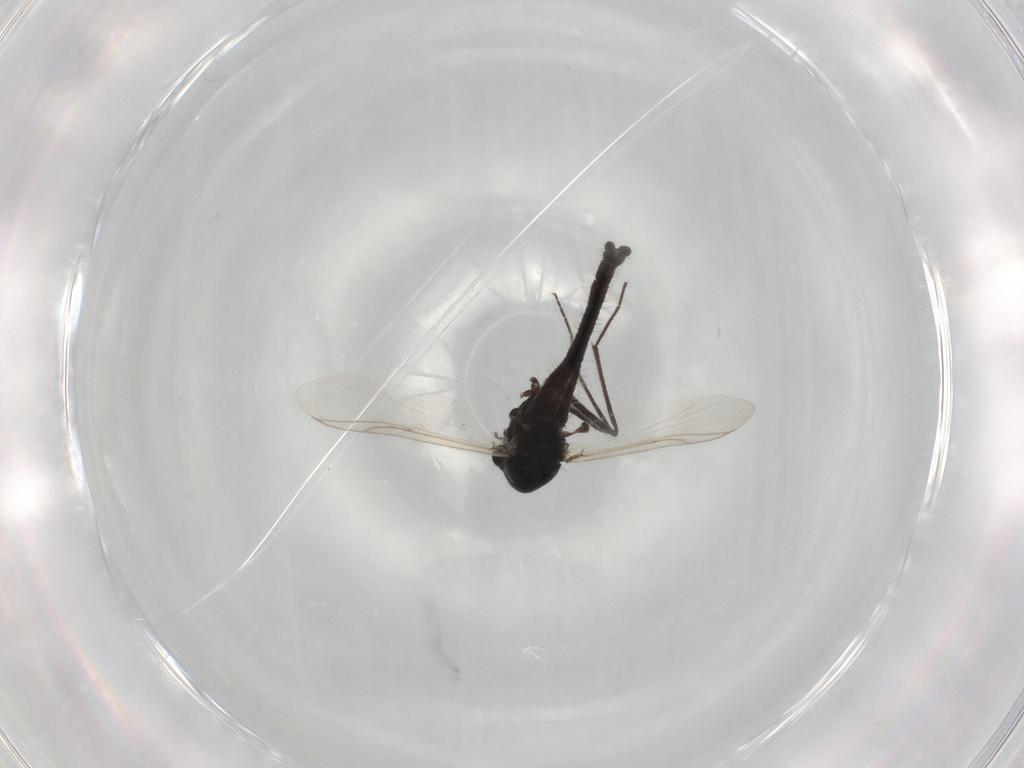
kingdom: Animalia
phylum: Arthropoda
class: Insecta
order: Diptera
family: Chironomidae
